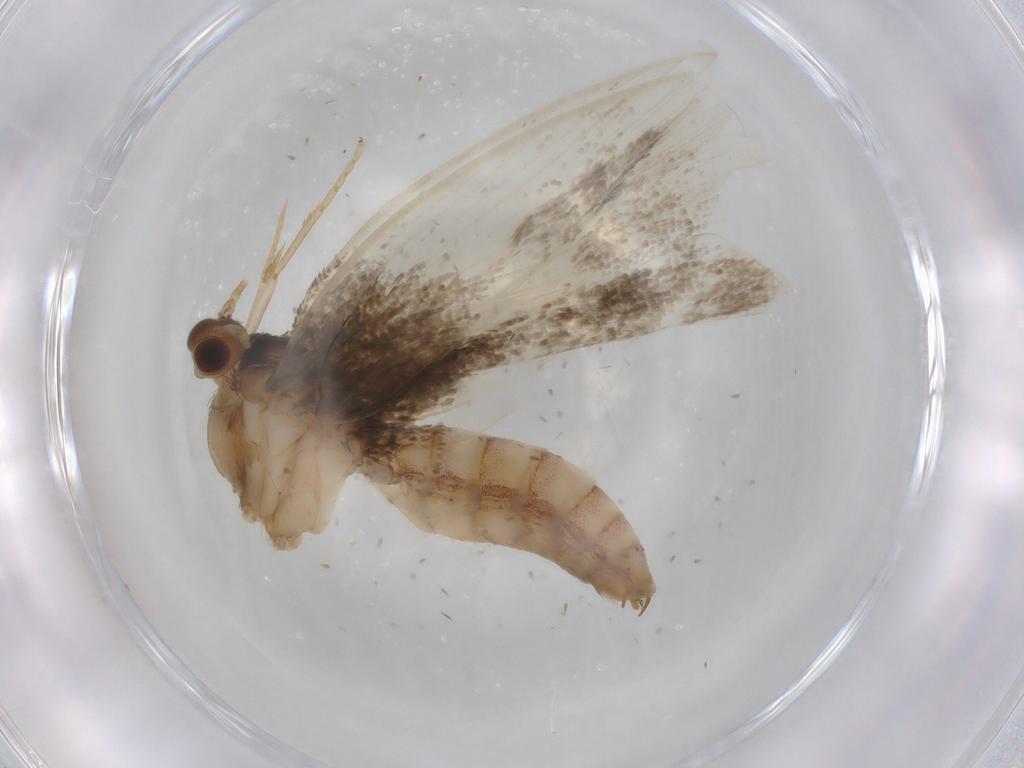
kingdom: Animalia
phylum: Arthropoda
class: Insecta
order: Lepidoptera
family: Tineidae
